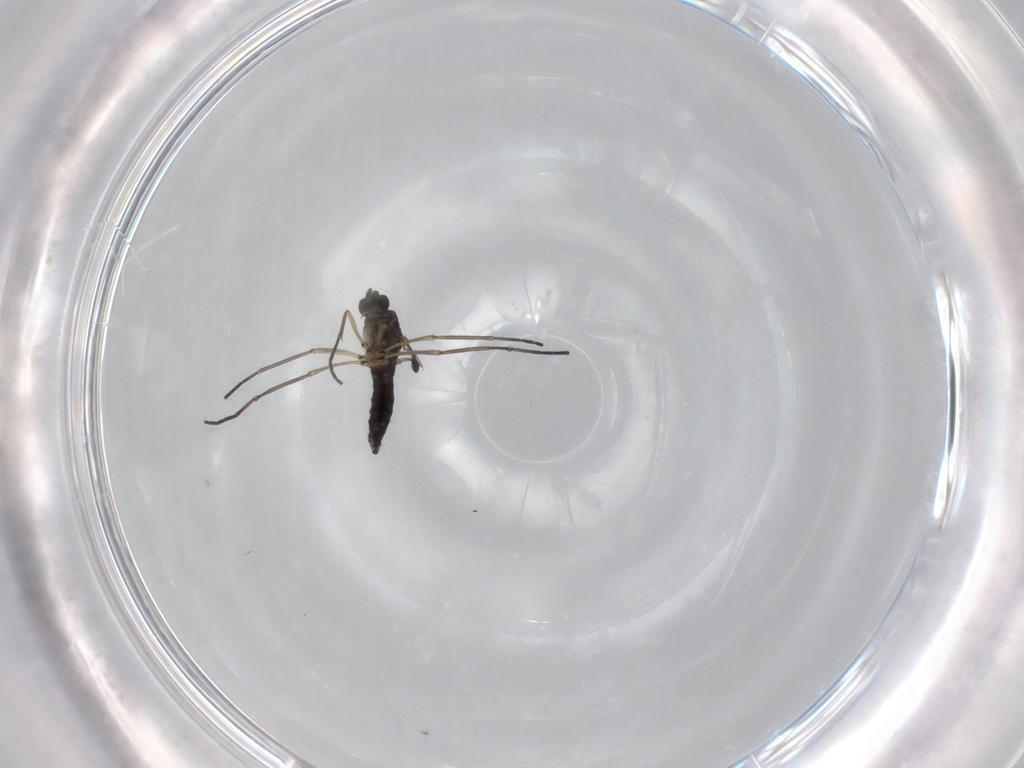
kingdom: Animalia
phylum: Arthropoda
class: Insecta
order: Diptera
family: Sciaridae
